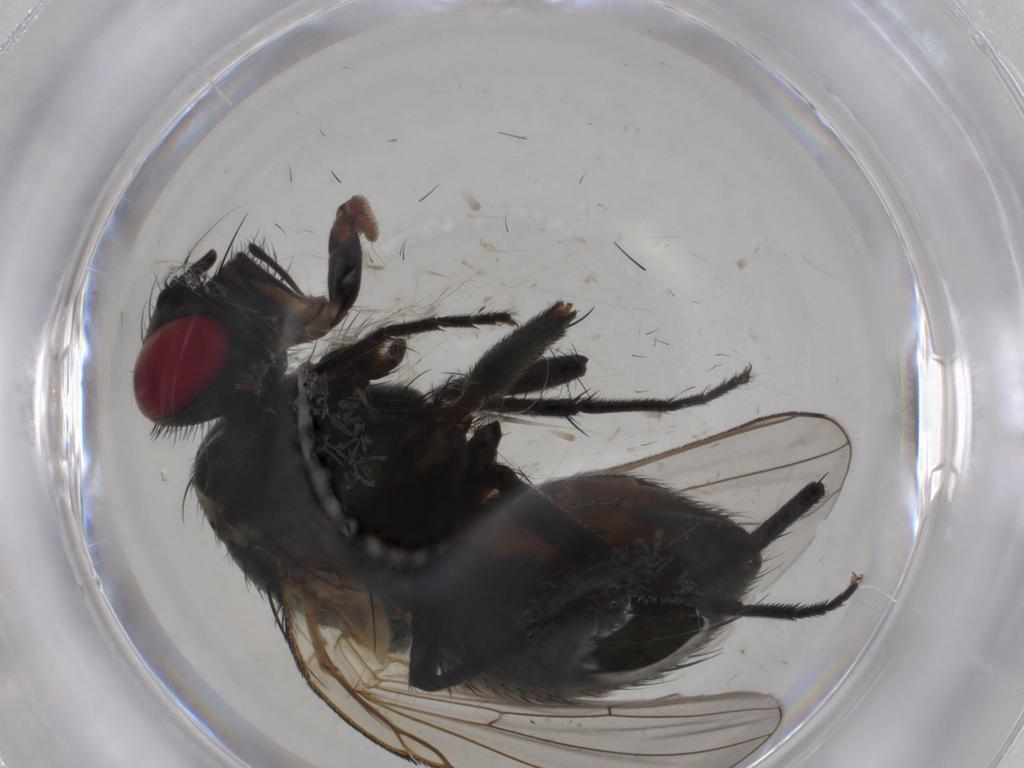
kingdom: Animalia
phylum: Arthropoda
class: Insecta
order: Diptera
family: Muscidae
